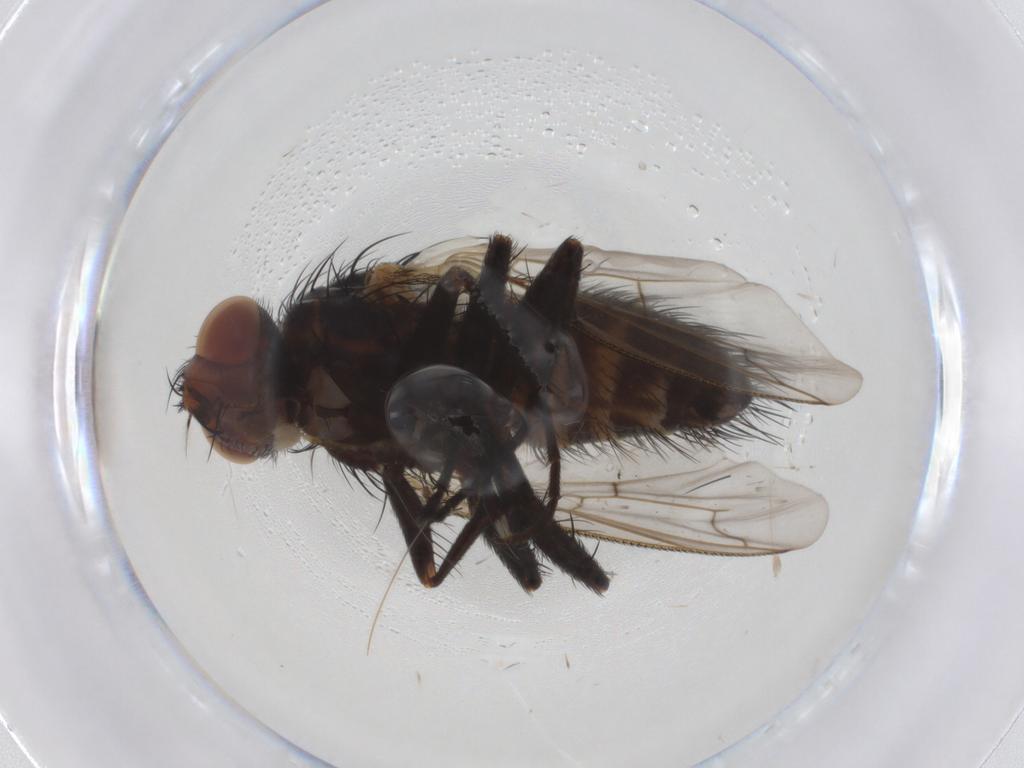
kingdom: Animalia
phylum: Arthropoda
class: Insecta
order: Diptera
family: Tachinidae
